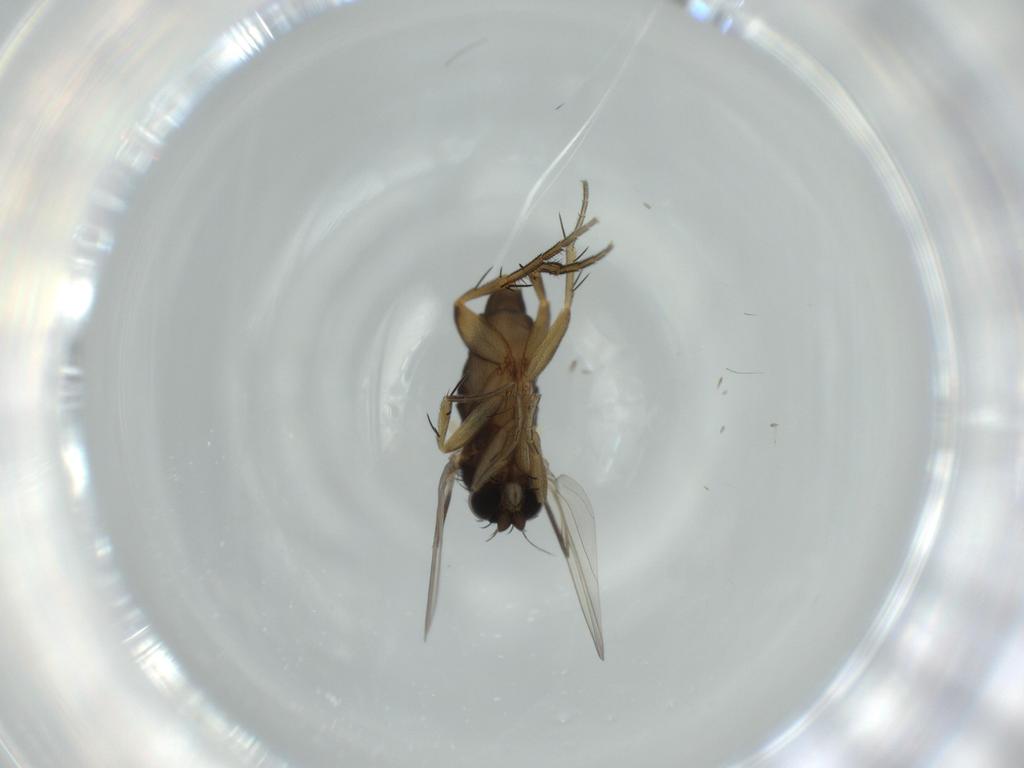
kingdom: Animalia
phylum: Arthropoda
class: Insecta
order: Diptera
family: Phoridae
